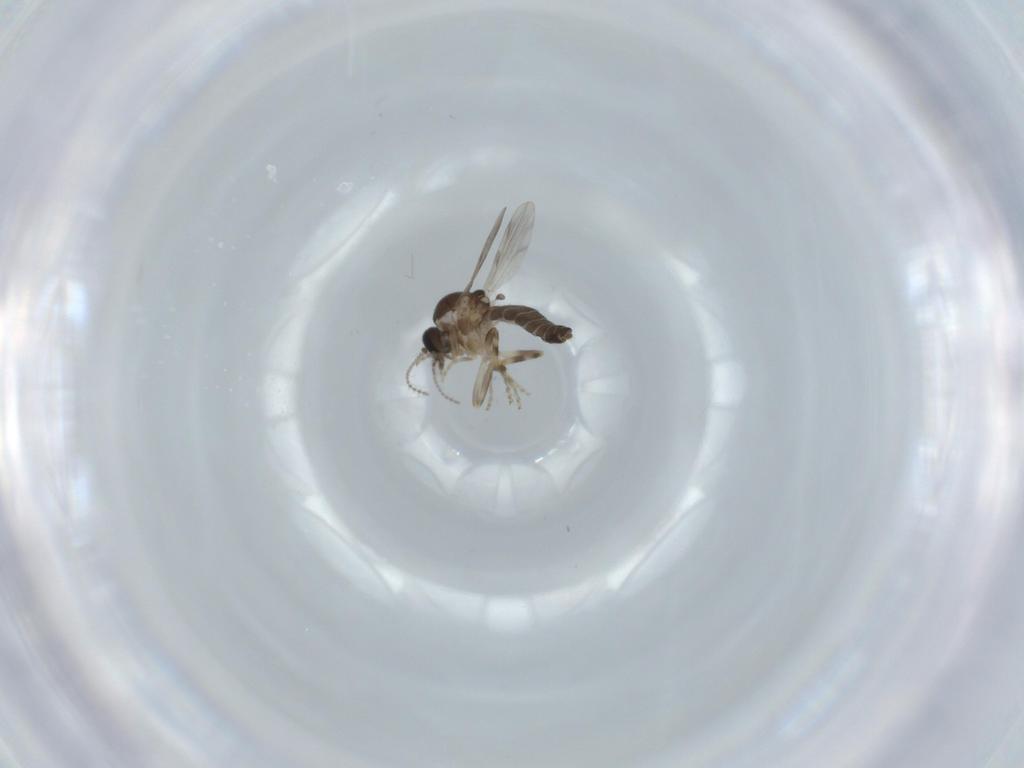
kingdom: Animalia
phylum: Arthropoda
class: Insecta
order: Diptera
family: Ceratopogonidae
